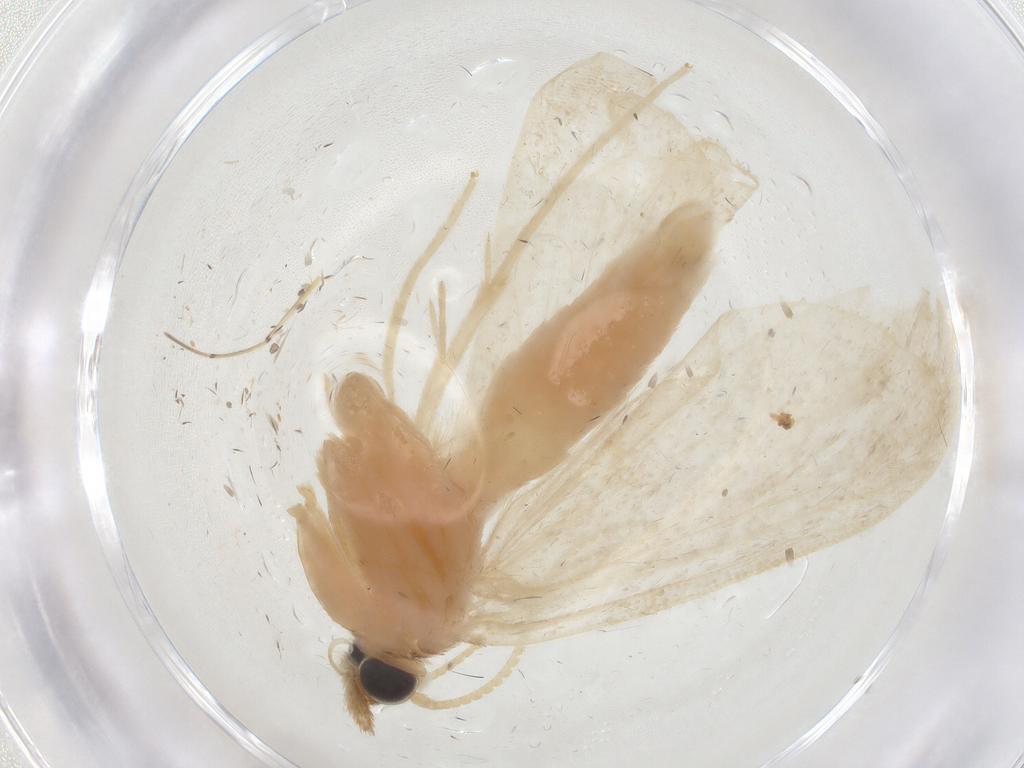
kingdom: Animalia
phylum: Arthropoda
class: Insecta
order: Lepidoptera
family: Crambidae
